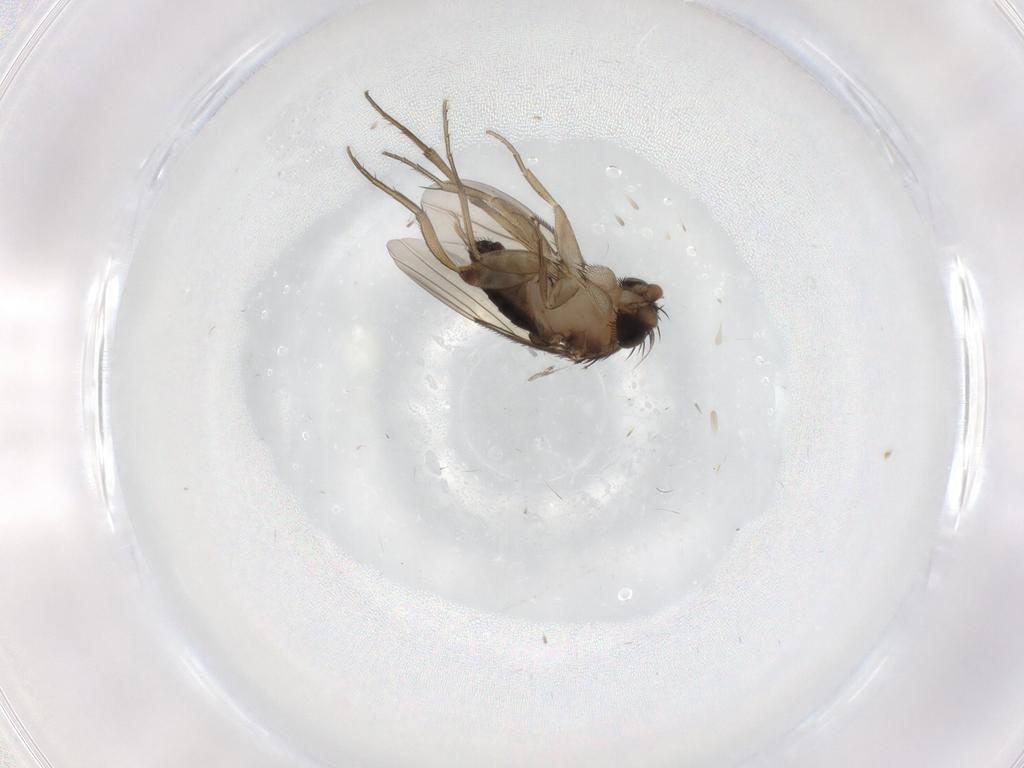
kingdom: Animalia
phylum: Arthropoda
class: Insecta
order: Diptera
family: Phoridae
